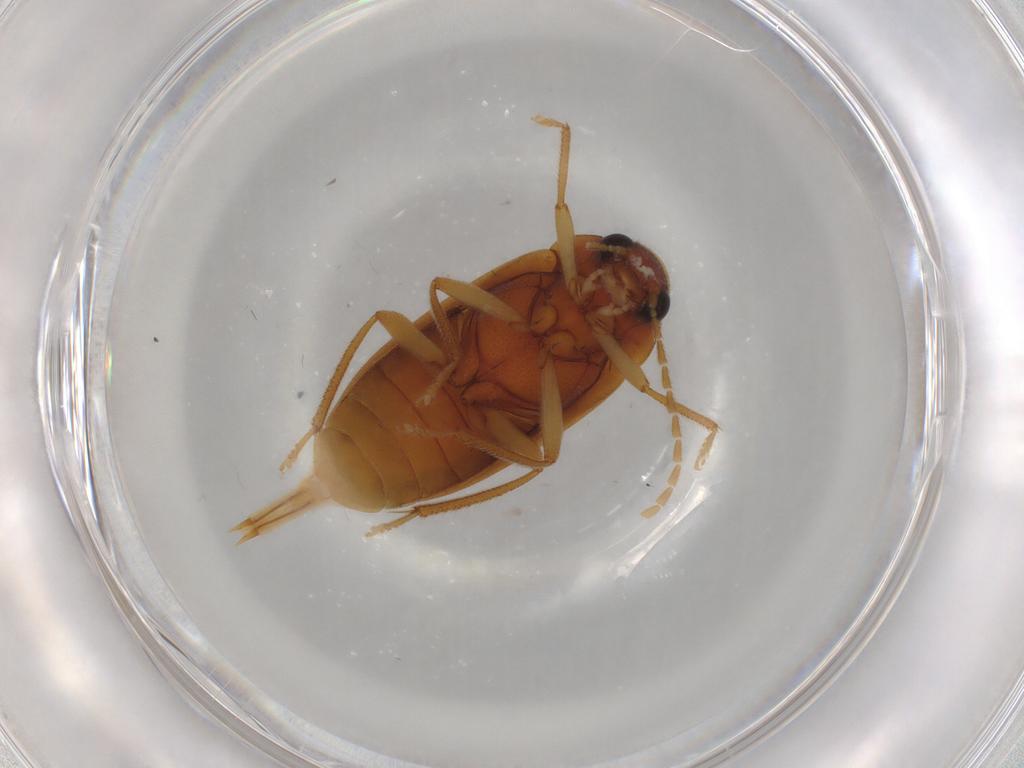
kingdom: Animalia
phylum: Arthropoda
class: Insecta
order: Coleoptera
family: Ptilodactylidae
